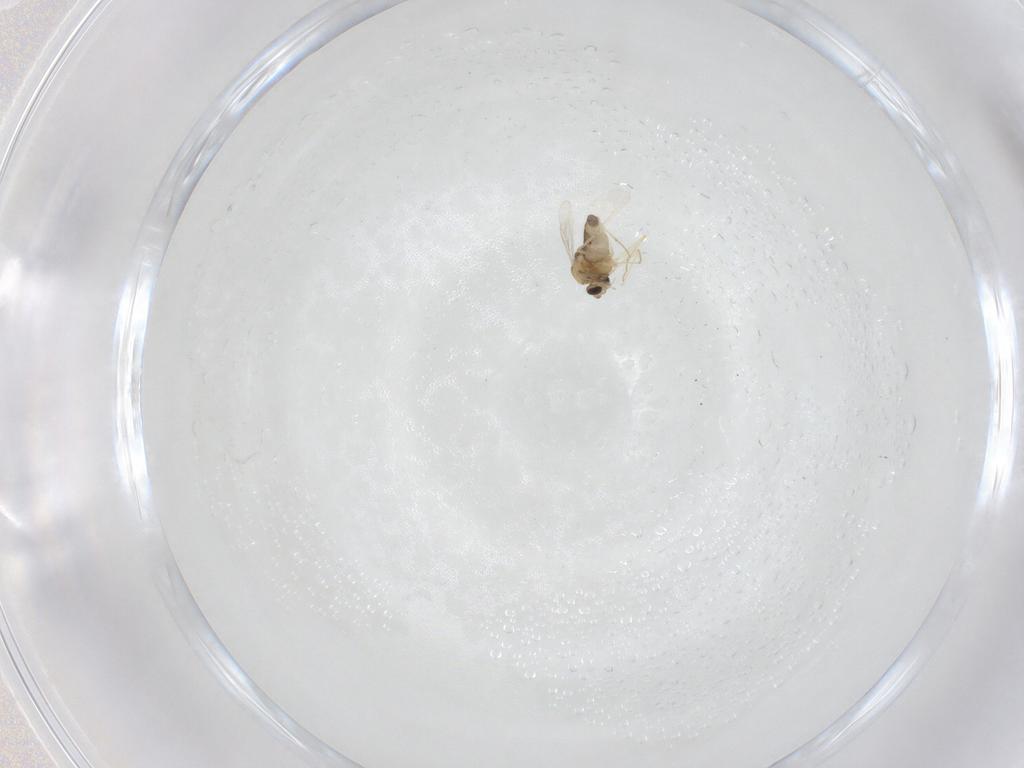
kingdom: Animalia
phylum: Arthropoda
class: Insecta
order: Diptera
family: Chironomidae
